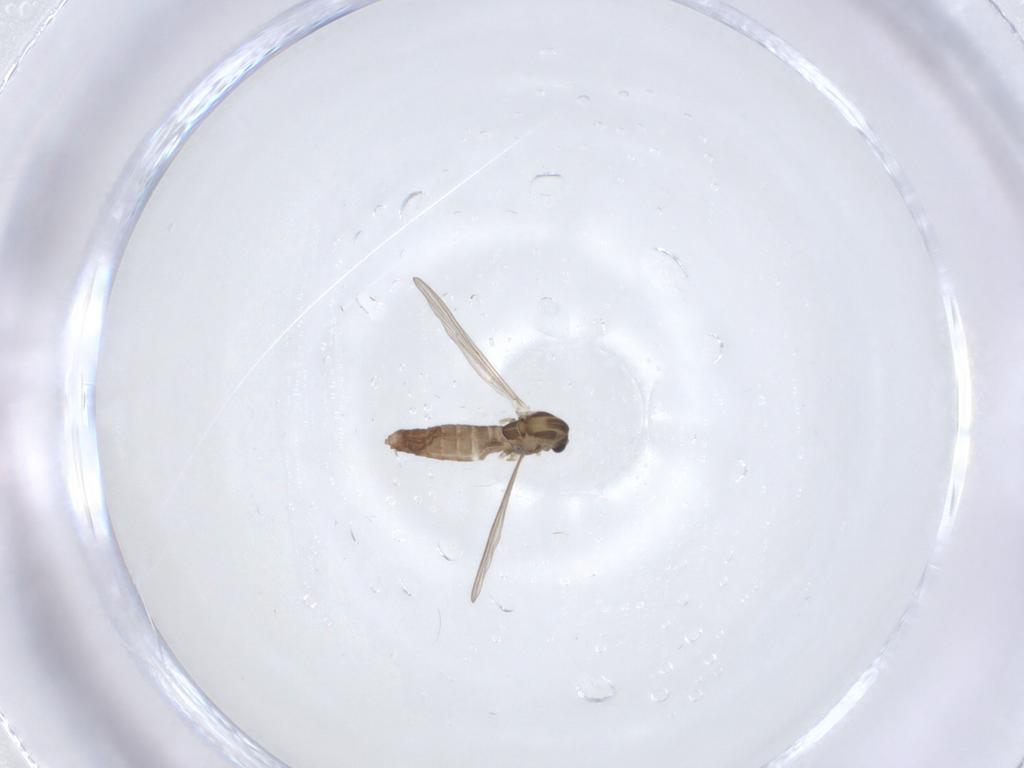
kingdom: Animalia
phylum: Arthropoda
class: Insecta
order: Diptera
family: Chironomidae
